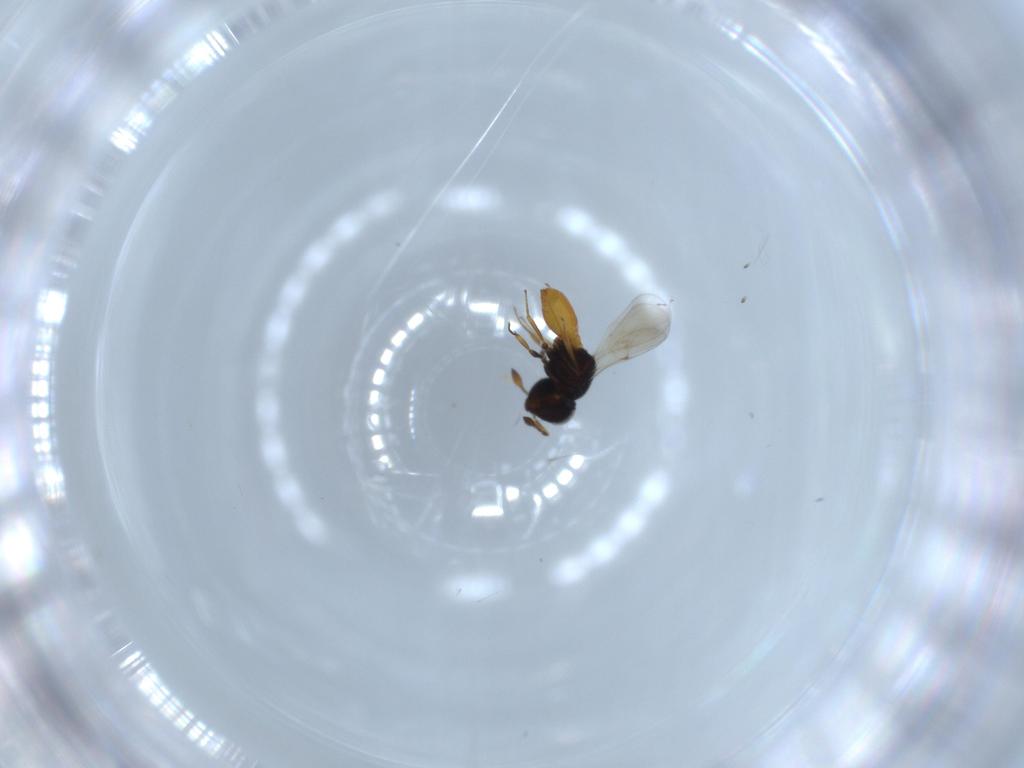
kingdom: Animalia
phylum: Arthropoda
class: Insecta
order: Hymenoptera
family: Scelionidae
